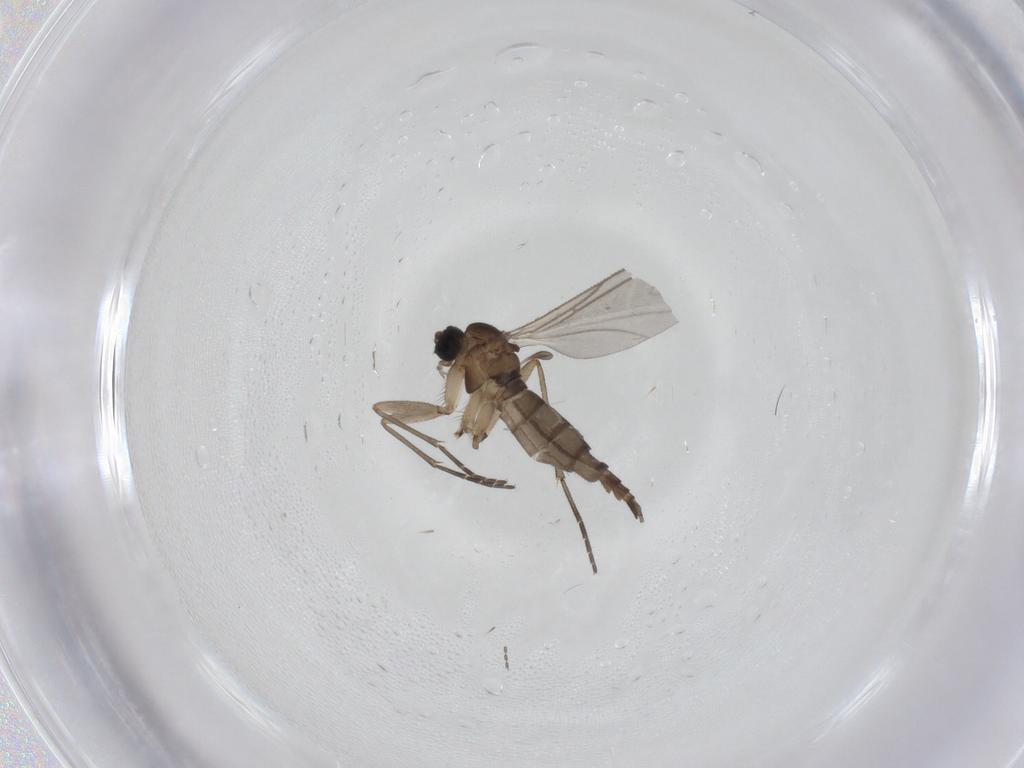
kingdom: Animalia
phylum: Arthropoda
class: Insecta
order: Diptera
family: Sciaridae
